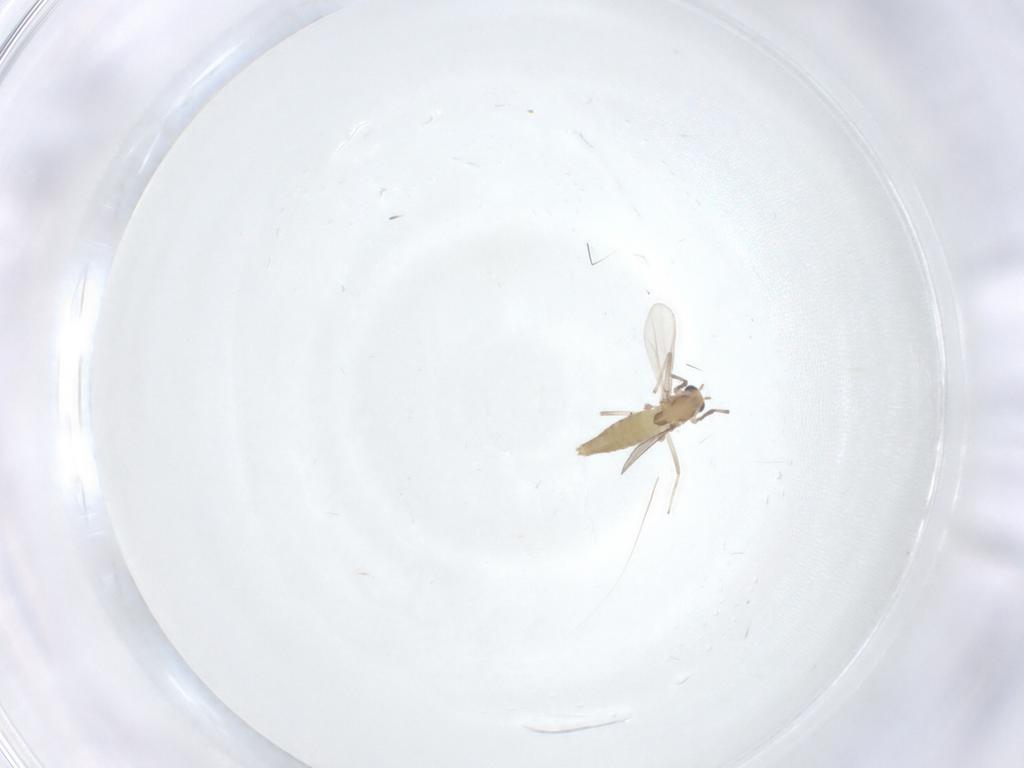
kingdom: Animalia
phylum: Arthropoda
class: Insecta
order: Diptera
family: Chironomidae
